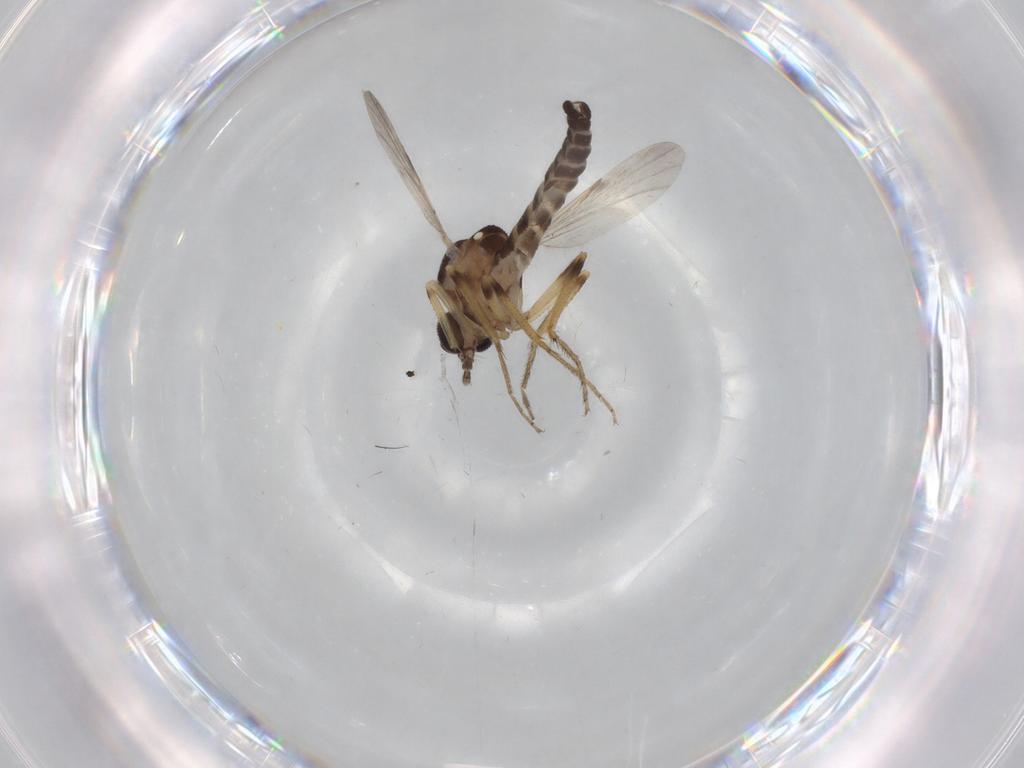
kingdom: Animalia
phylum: Arthropoda
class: Insecta
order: Diptera
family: Ceratopogonidae
